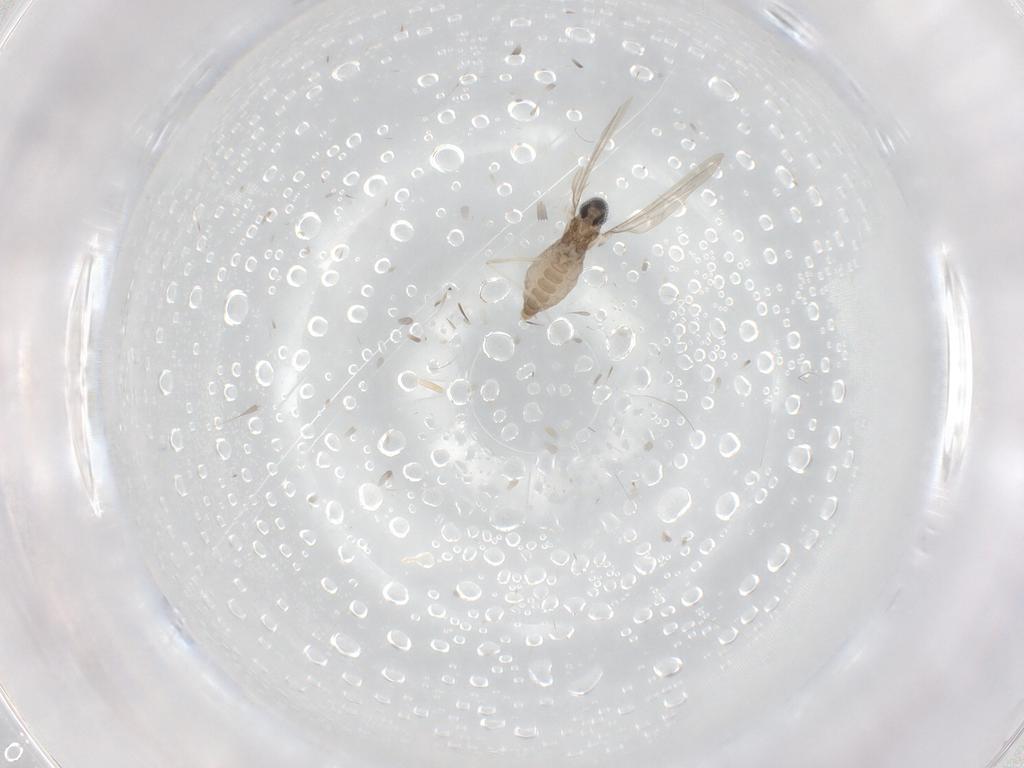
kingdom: Animalia
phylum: Arthropoda
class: Insecta
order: Diptera
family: Cecidomyiidae
